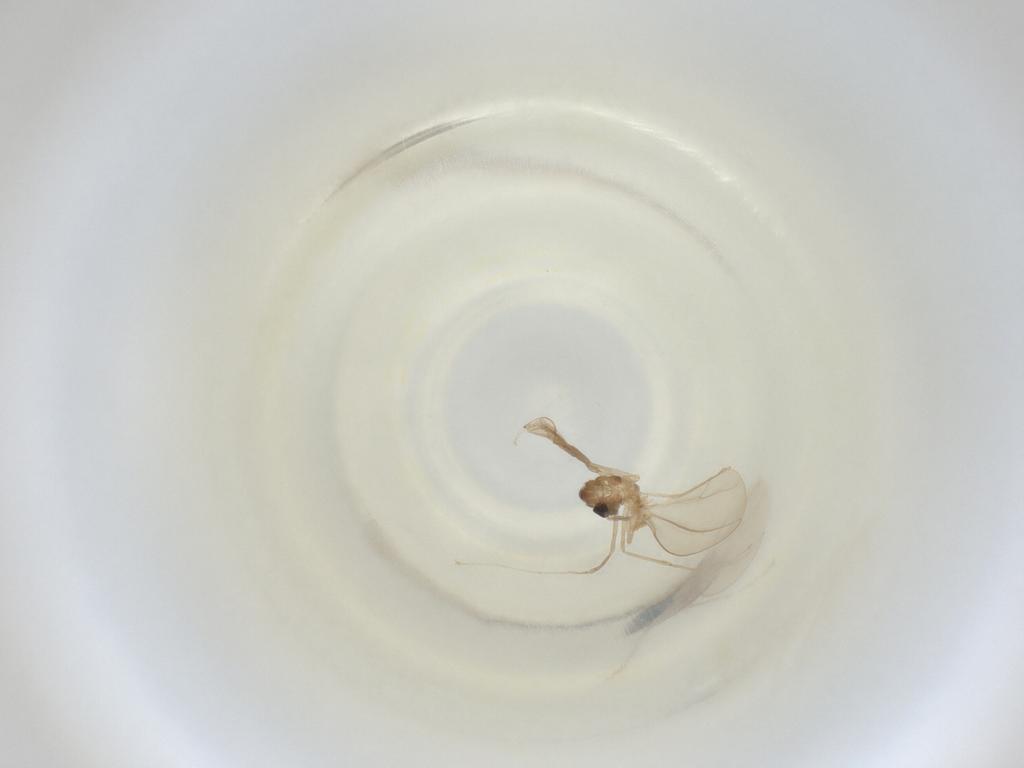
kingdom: Animalia
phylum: Arthropoda
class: Insecta
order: Diptera
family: Cecidomyiidae
